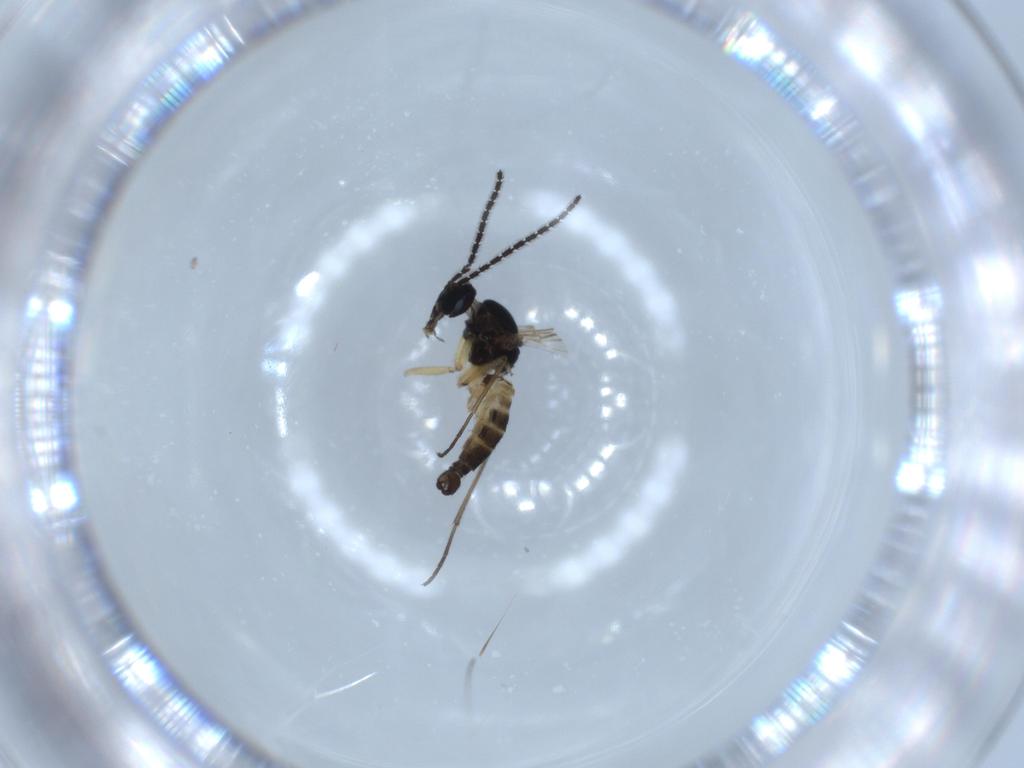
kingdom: Animalia
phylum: Arthropoda
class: Insecta
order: Diptera
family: Sciaridae
